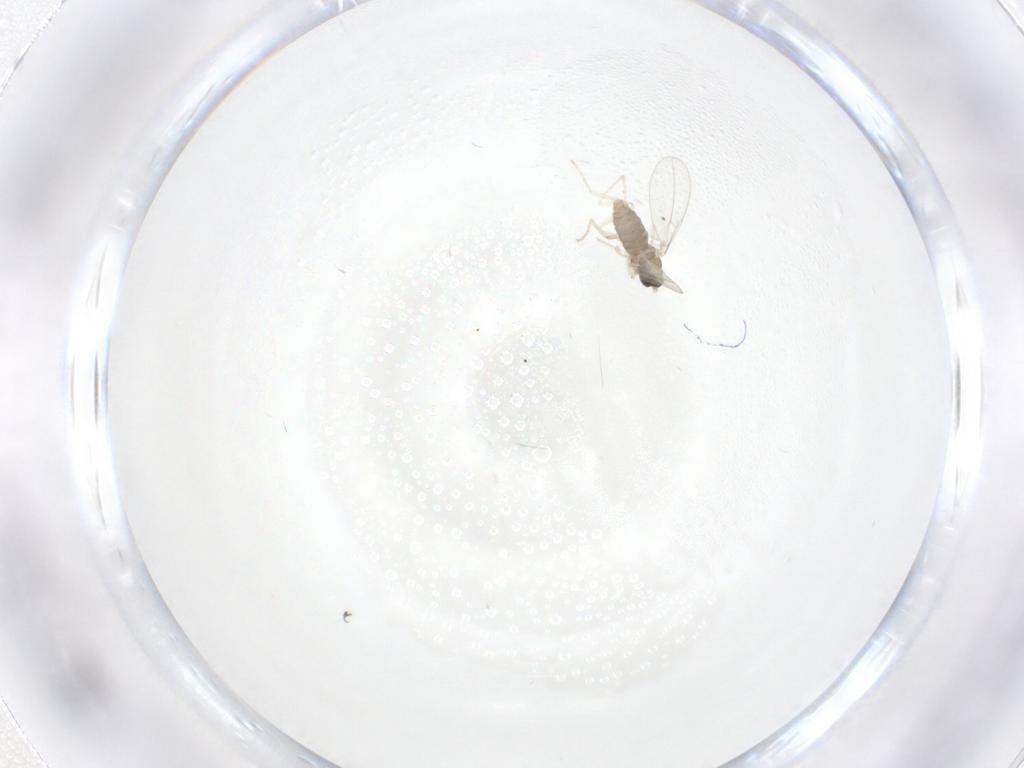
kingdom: Animalia
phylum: Arthropoda
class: Insecta
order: Diptera
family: Cecidomyiidae
